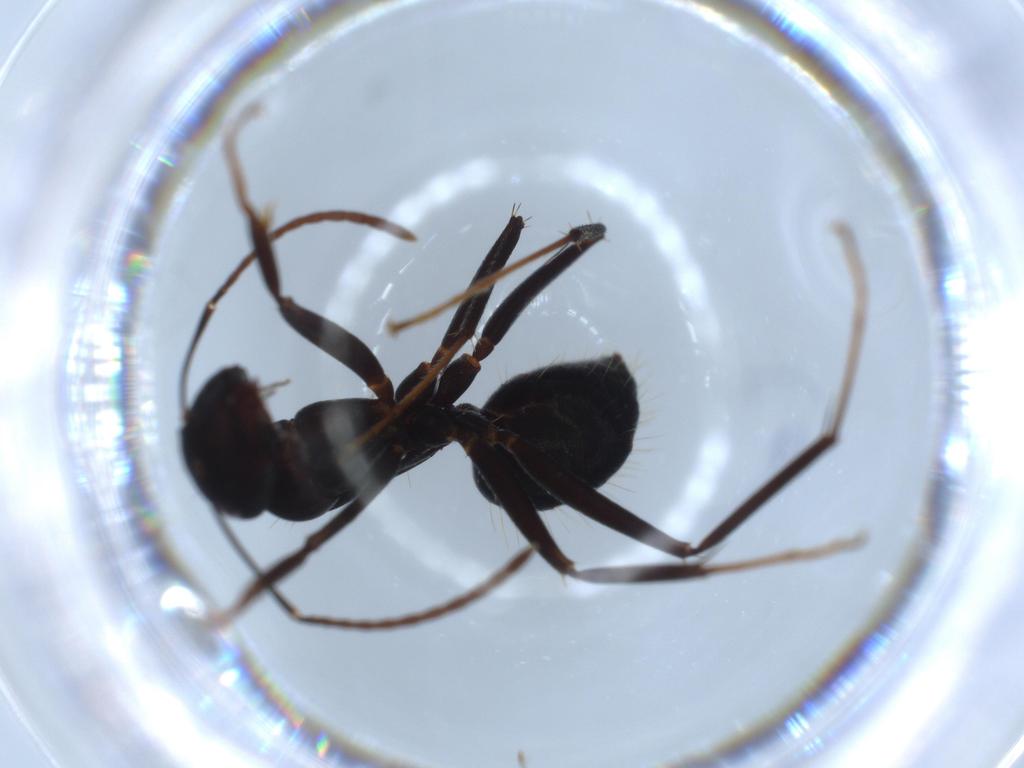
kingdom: Animalia
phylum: Arthropoda
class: Insecta
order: Hymenoptera
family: Formicidae
